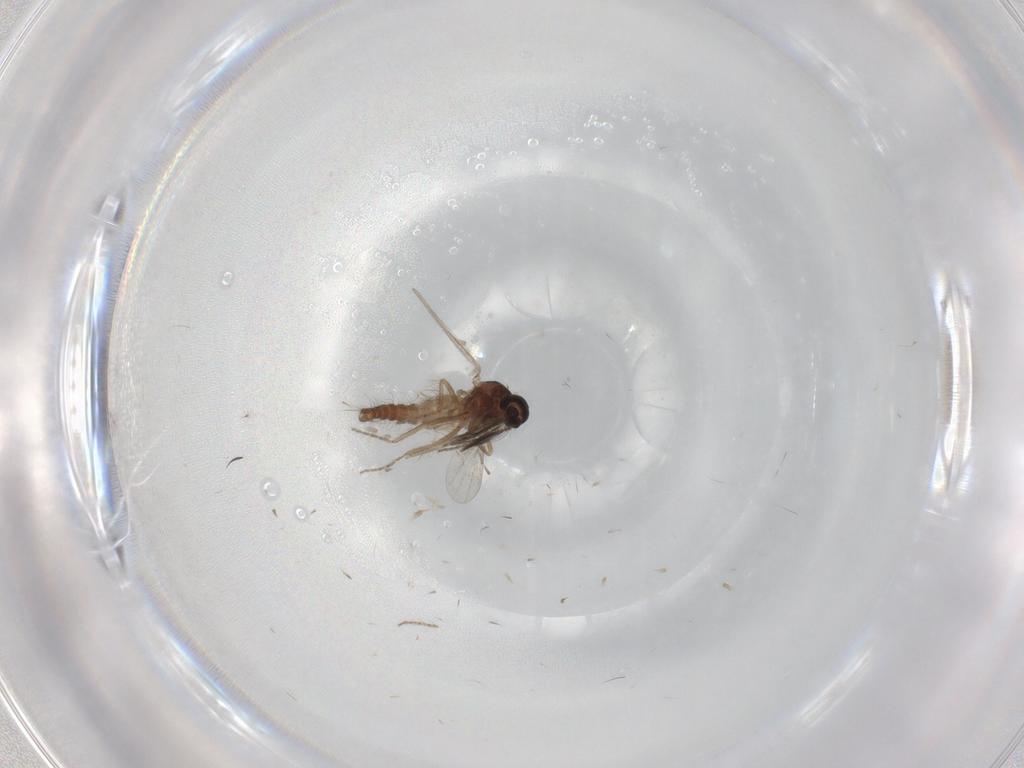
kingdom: Animalia
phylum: Arthropoda
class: Insecta
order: Diptera
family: Ceratopogonidae
